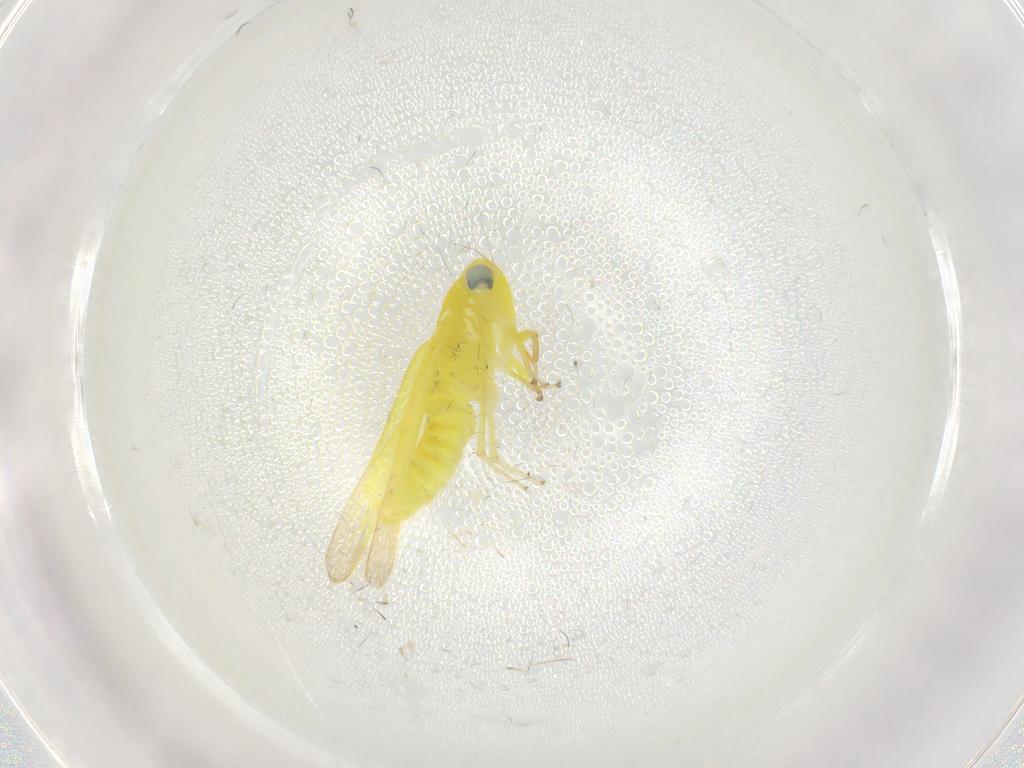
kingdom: Animalia
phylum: Arthropoda
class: Insecta
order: Hemiptera
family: Cicadellidae
